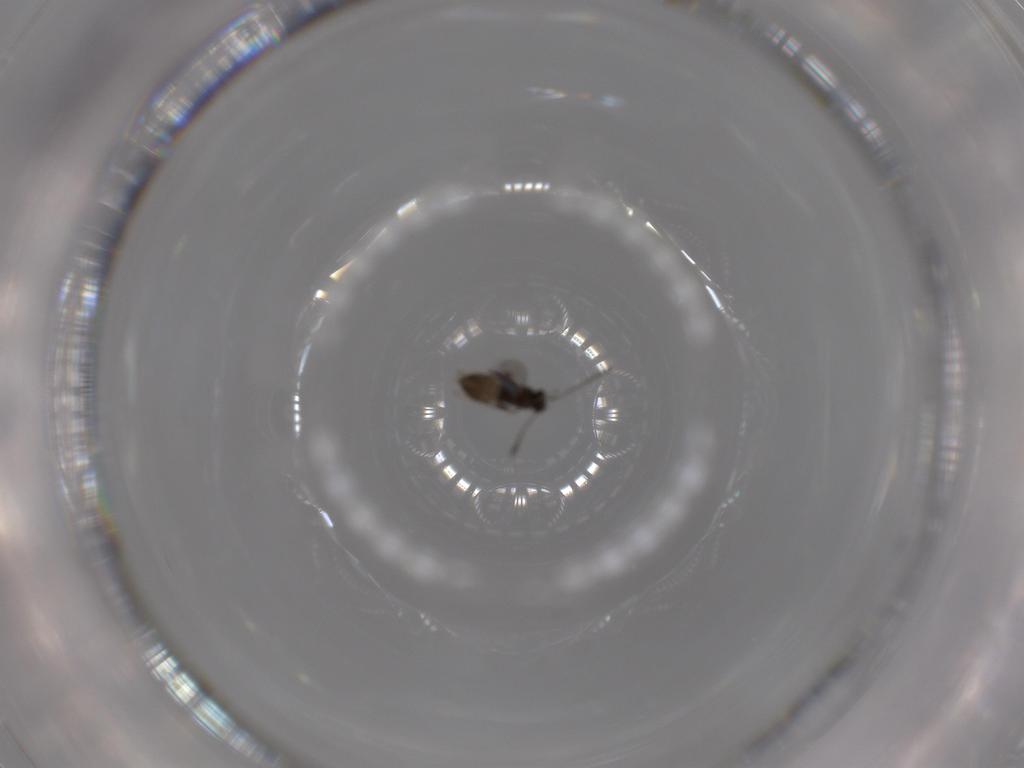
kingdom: Animalia
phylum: Arthropoda
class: Insecta
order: Hymenoptera
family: Mymaridae
